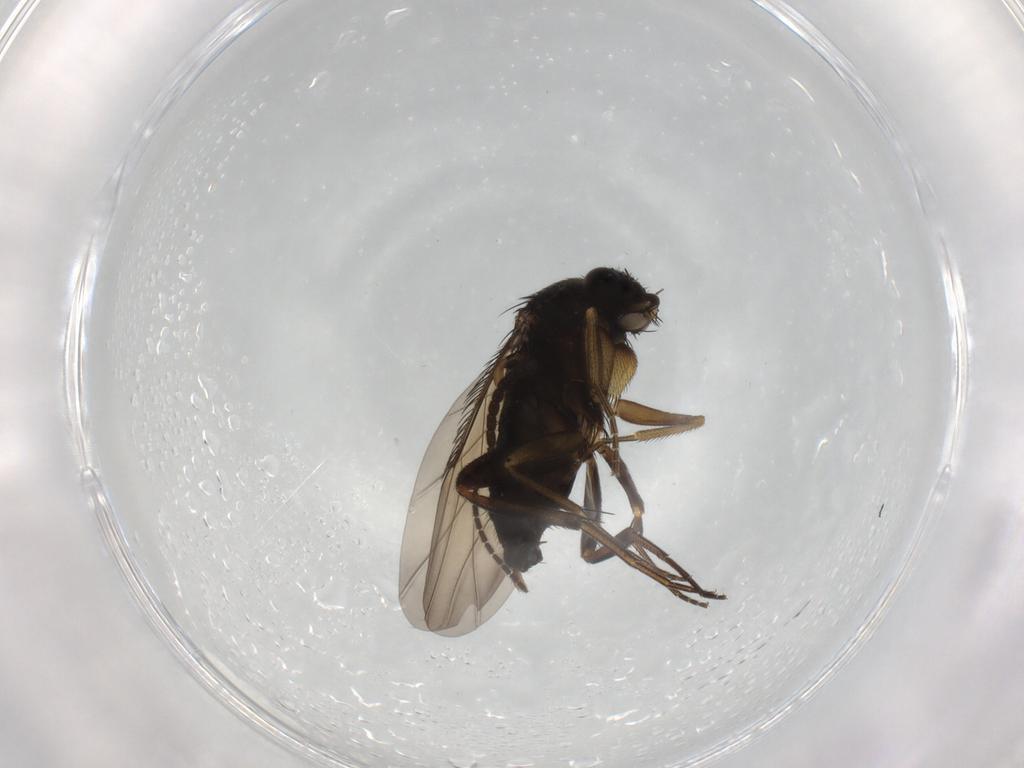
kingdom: Animalia
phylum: Arthropoda
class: Insecta
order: Diptera
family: Phoridae
